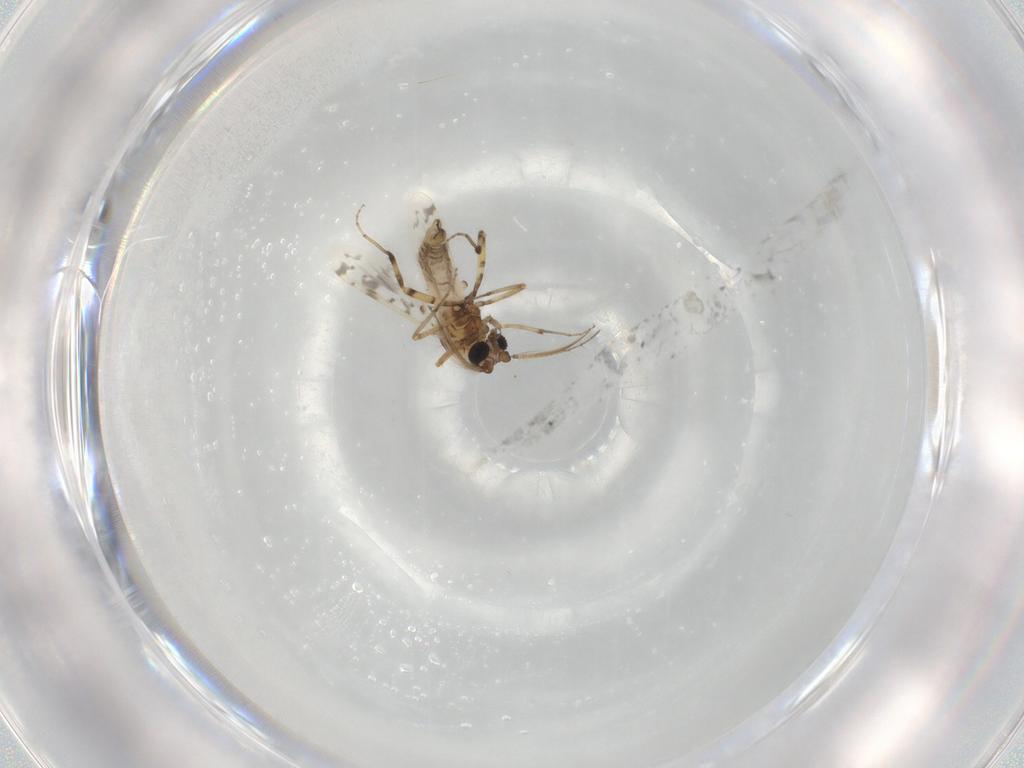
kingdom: Animalia
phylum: Arthropoda
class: Insecta
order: Diptera
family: Ceratopogonidae
